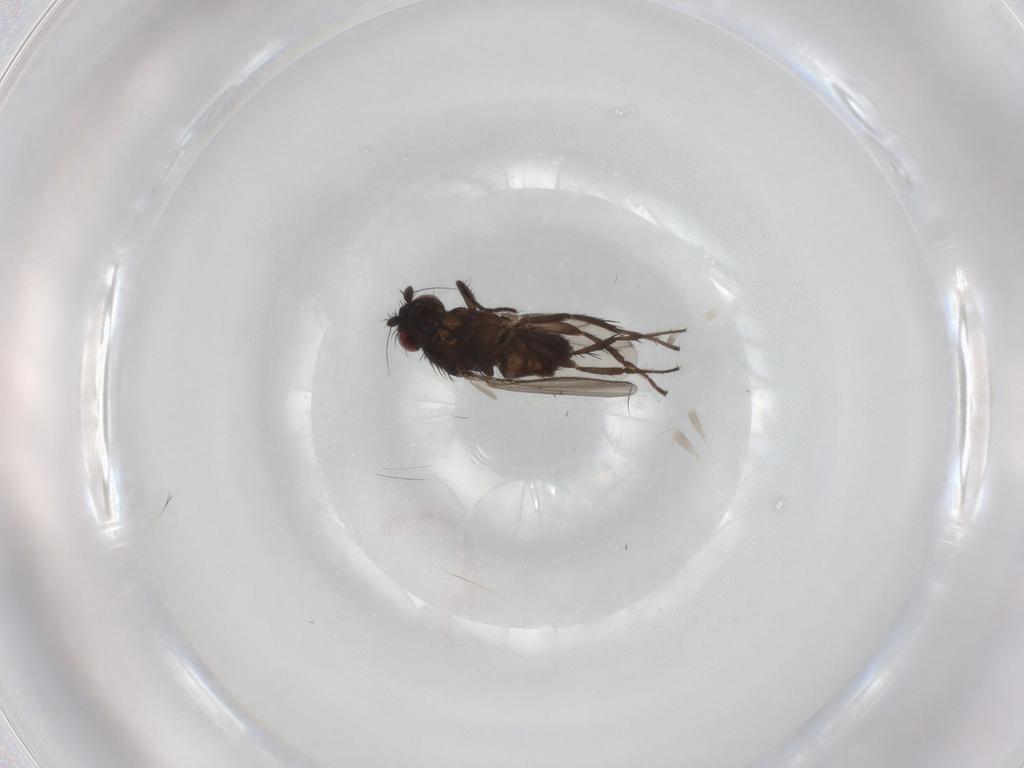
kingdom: Animalia
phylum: Arthropoda
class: Insecta
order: Diptera
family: Sphaeroceridae
